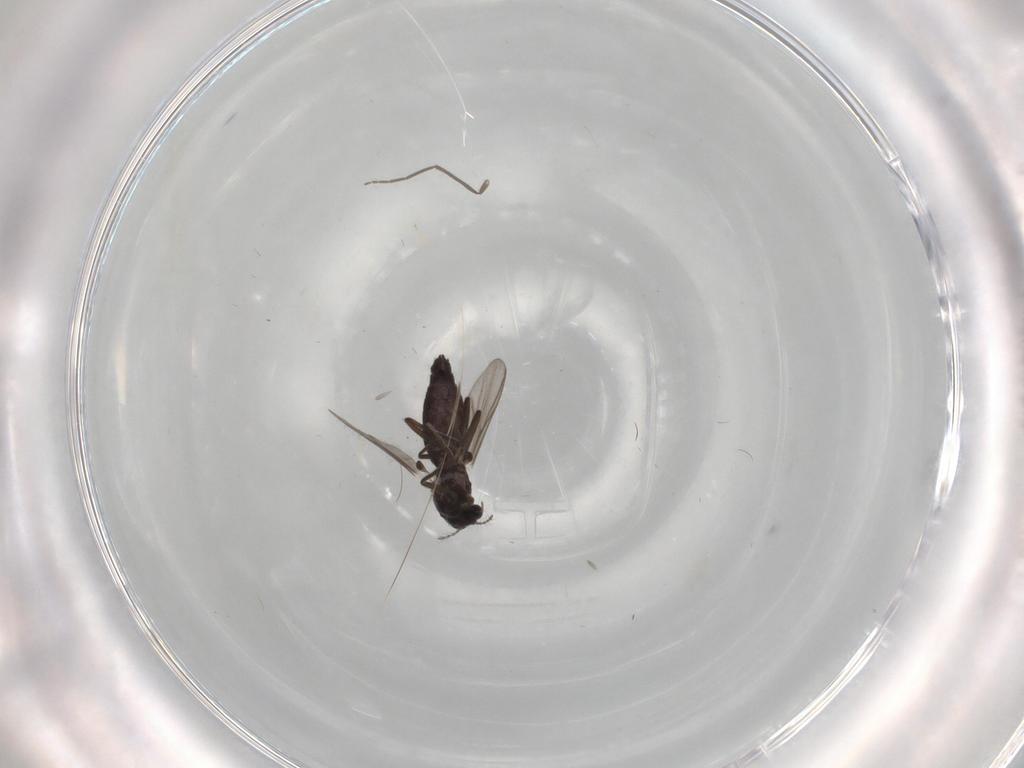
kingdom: Animalia
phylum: Arthropoda
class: Insecta
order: Diptera
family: Chironomidae
